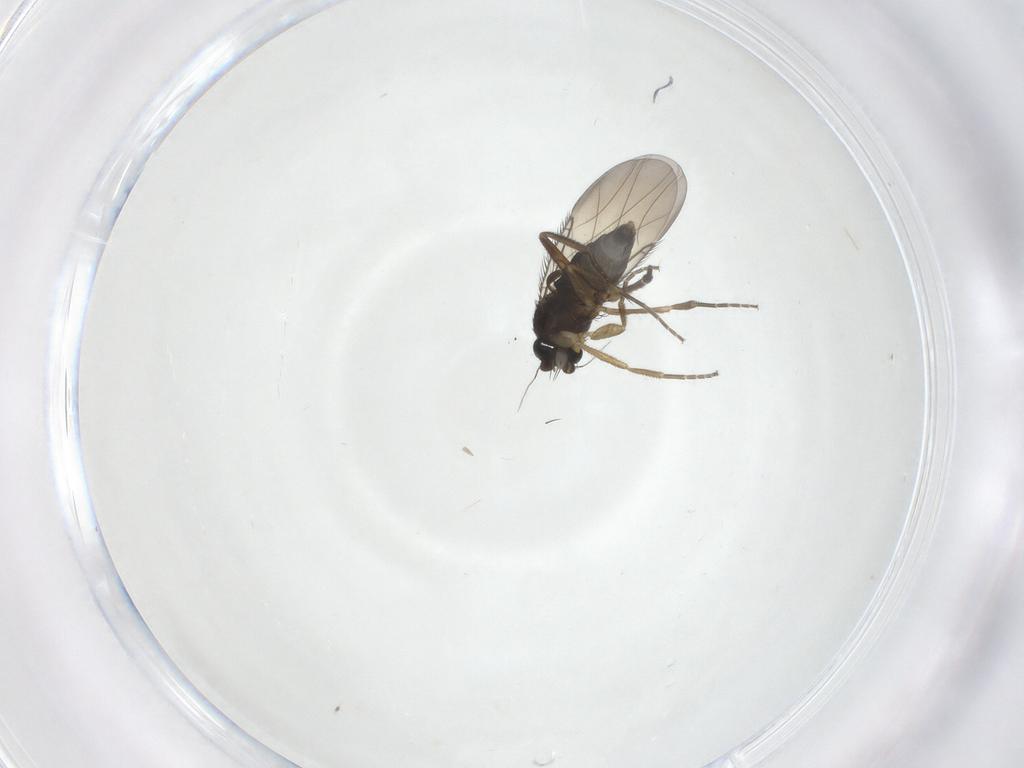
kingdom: Animalia
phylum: Arthropoda
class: Insecta
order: Diptera
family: Phoridae
